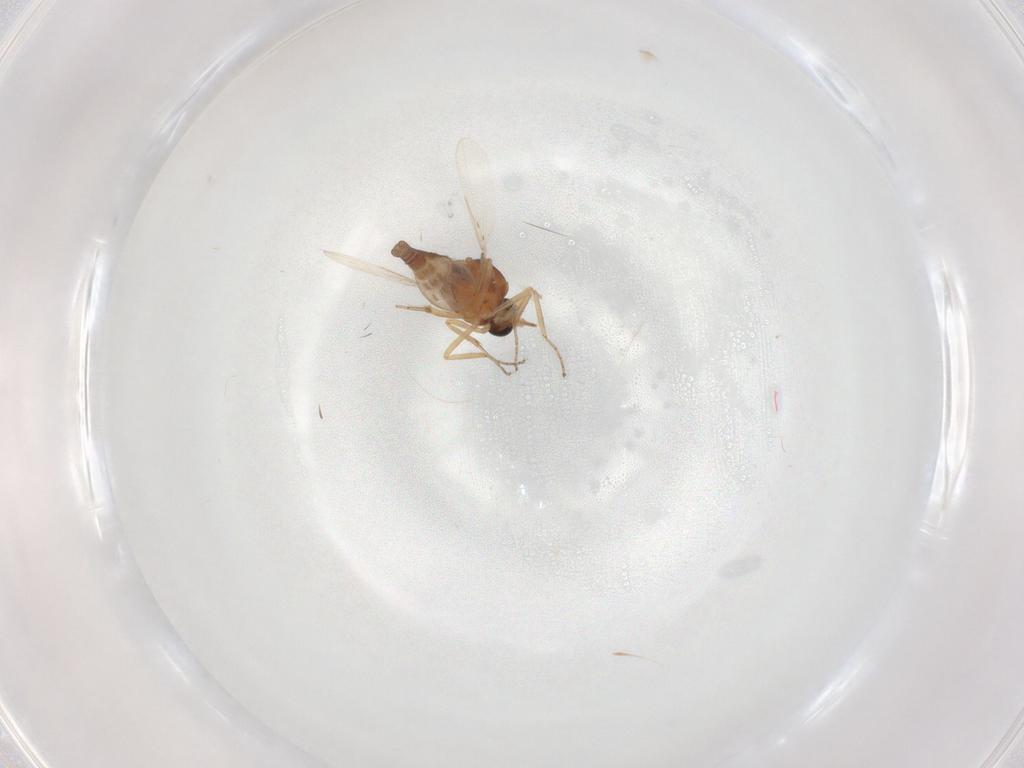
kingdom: Animalia
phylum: Arthropoda
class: Insecta
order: Diptera
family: Ceratopogonidae
